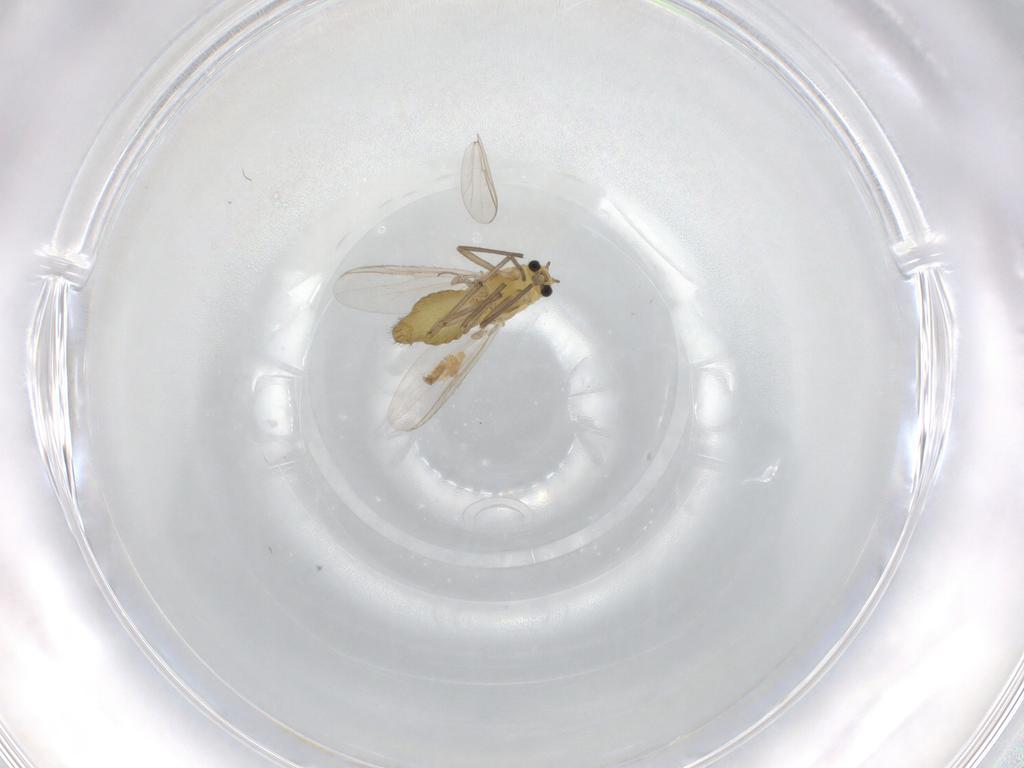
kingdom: Animalia
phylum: Arthropoda
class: Insecta
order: Diptera
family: Chironomidae
